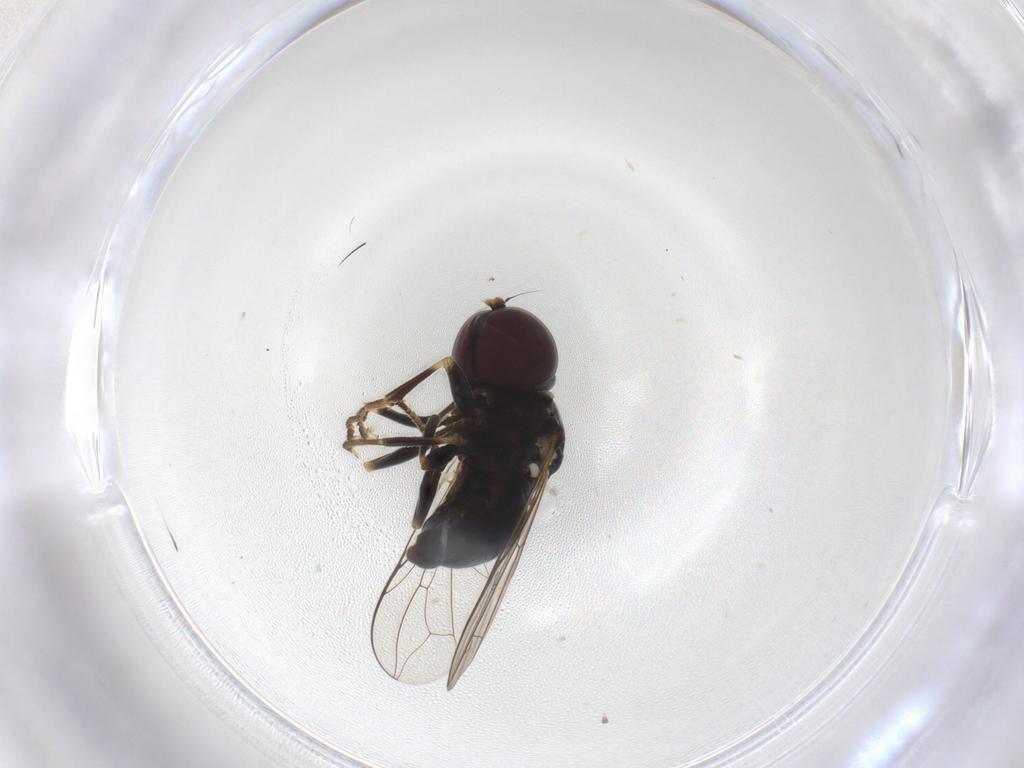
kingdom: Animalia
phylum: Arthropoda
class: Insecta
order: Diptera
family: Pipunculidae
